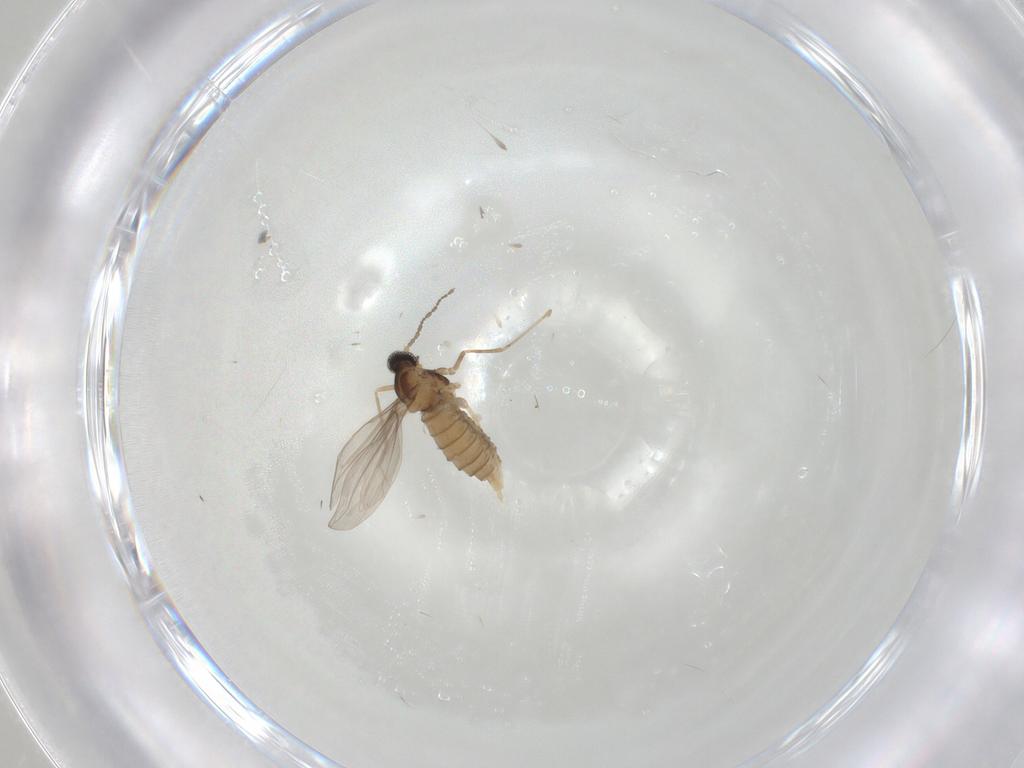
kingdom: Animalia
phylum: Arthropoda
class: Insecta
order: Diptera
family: Cecidomyiidae
